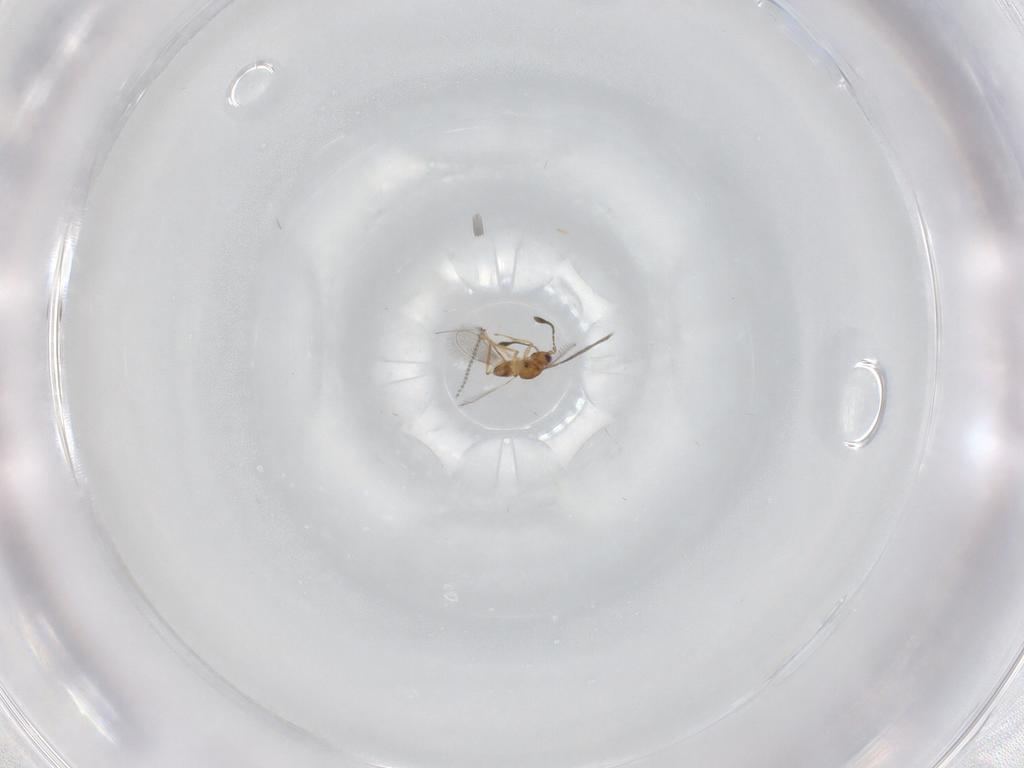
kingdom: Animalia
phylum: Arthropoda
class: Insecta
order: Hymenoptera
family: Mymaridae
